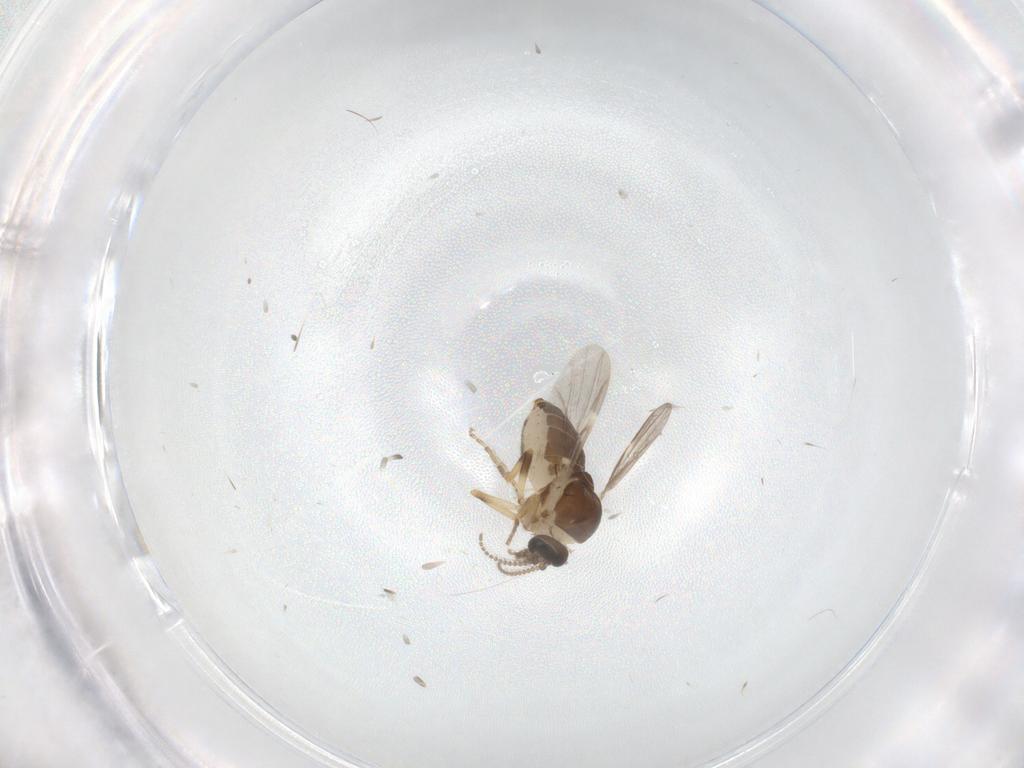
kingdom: Animalia
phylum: Arthropoda
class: Insecta
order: Diptera
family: Ceratopogonidae
